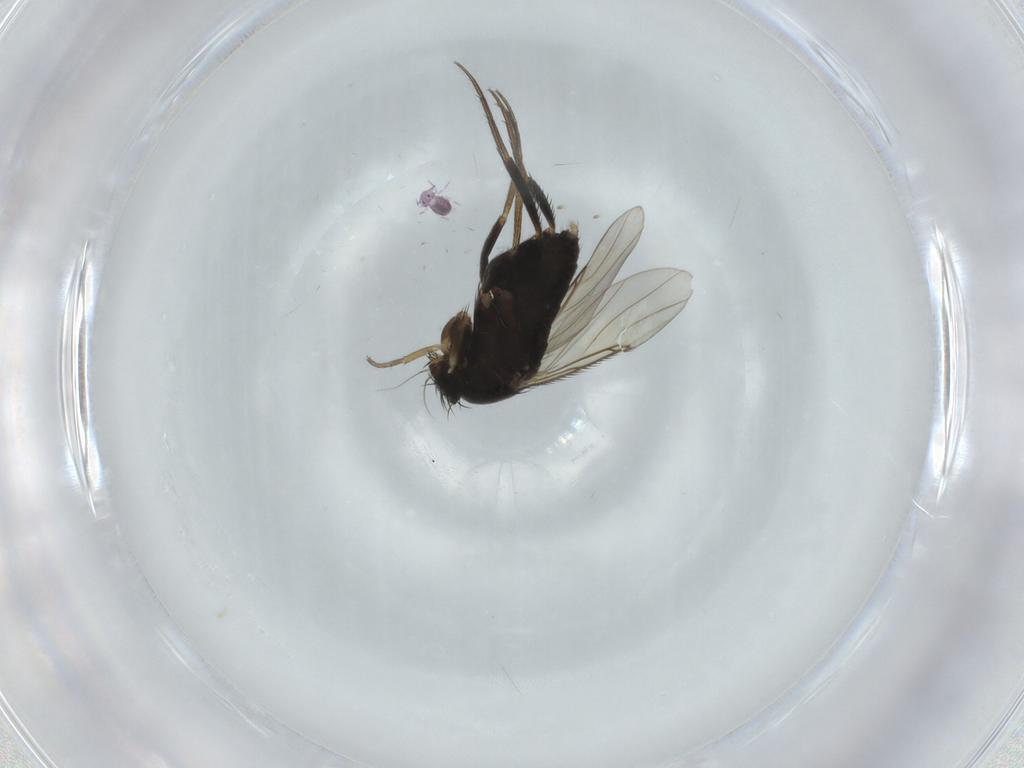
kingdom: Animalia
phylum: Arthropoda
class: Insecta
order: Diptera
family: Phoridae
